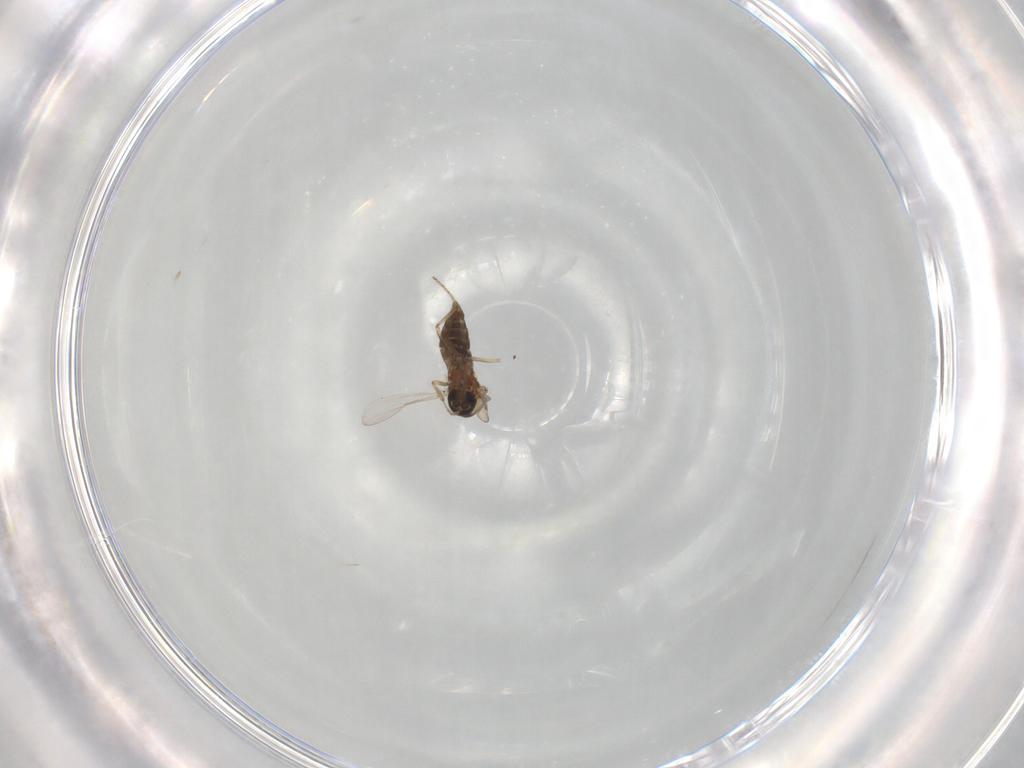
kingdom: Animalia
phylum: Arthropoda
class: Insecta
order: Diptera
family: Ceratopogonidae
